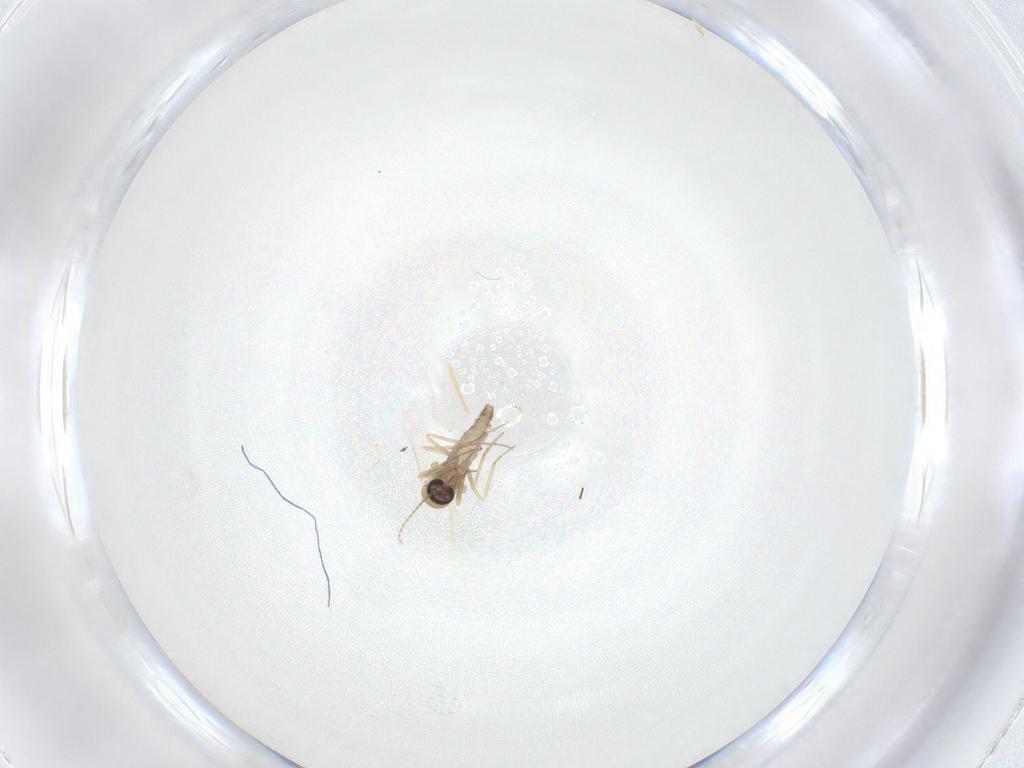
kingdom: Animalia
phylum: Arthropoda
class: Insecta
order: Diptera
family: Ceratopogonidae
